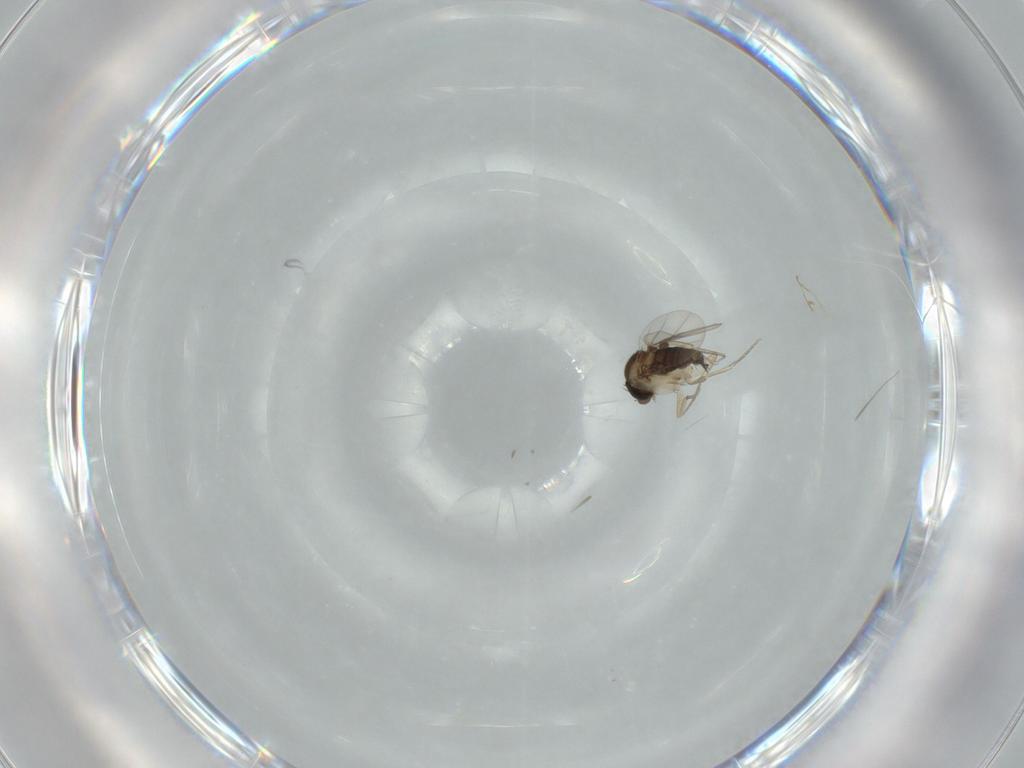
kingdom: Animalia
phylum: Arthropoda
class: Insecta
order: Diptera
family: Phoridae
